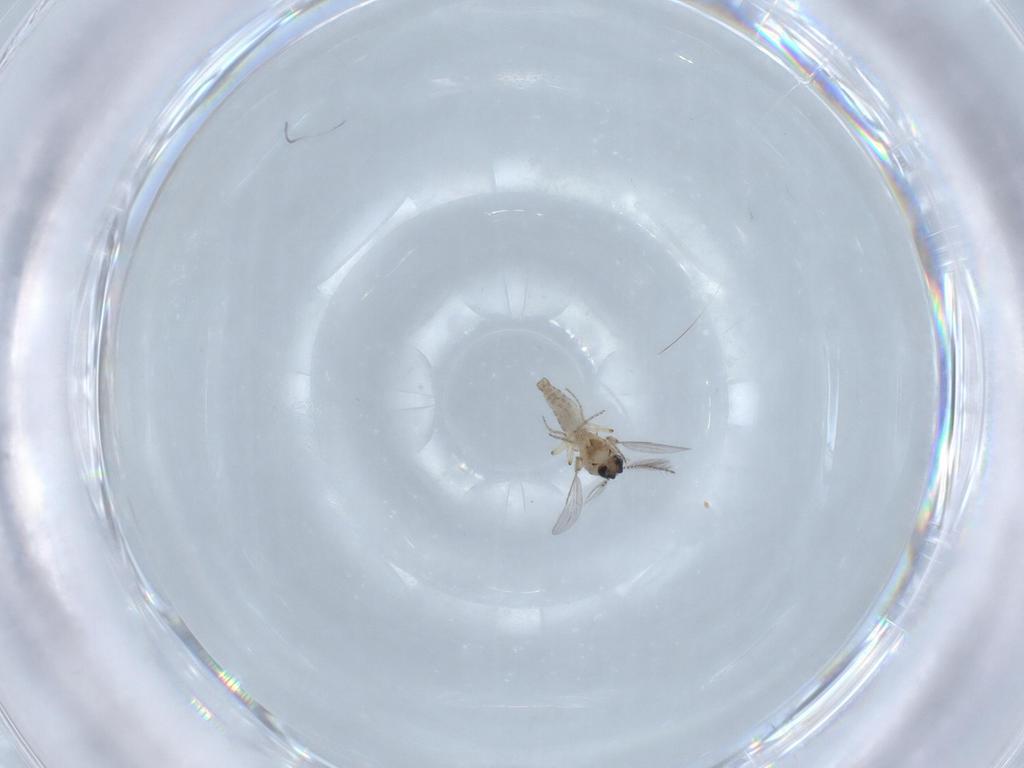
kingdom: Animalia
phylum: Arthropoda
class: Insecta
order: Diptera
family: Ceratopogonidae
